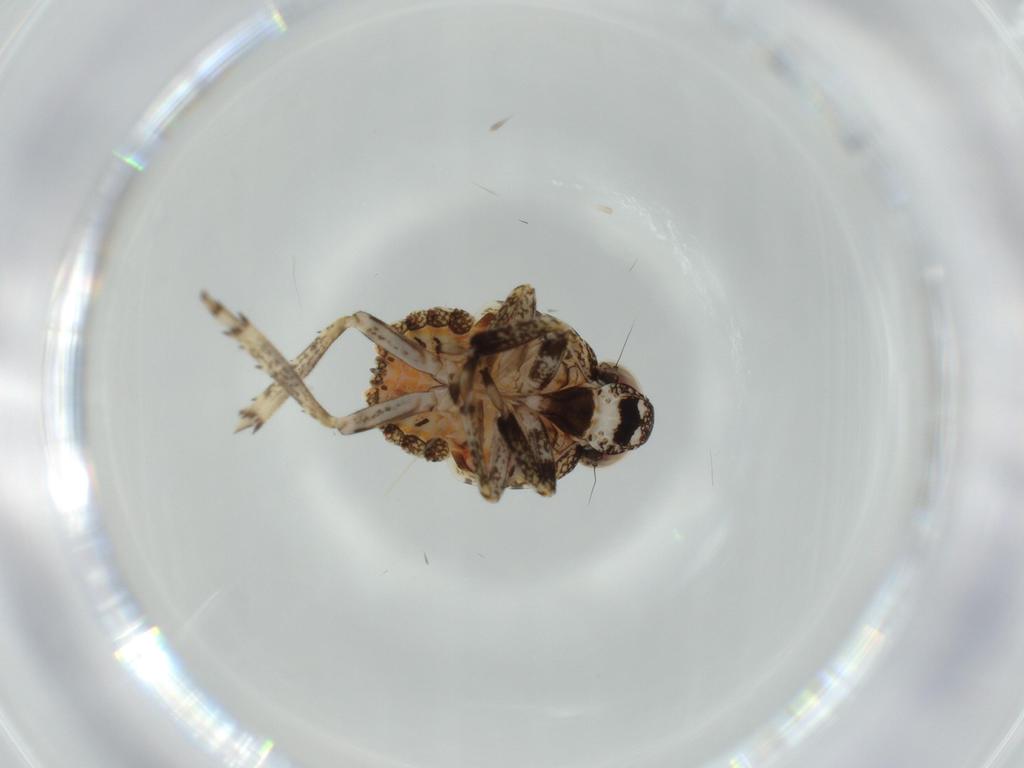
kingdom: Animalia
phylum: Arthropoda
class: Insecta
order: Hemiptera
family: Issidae
